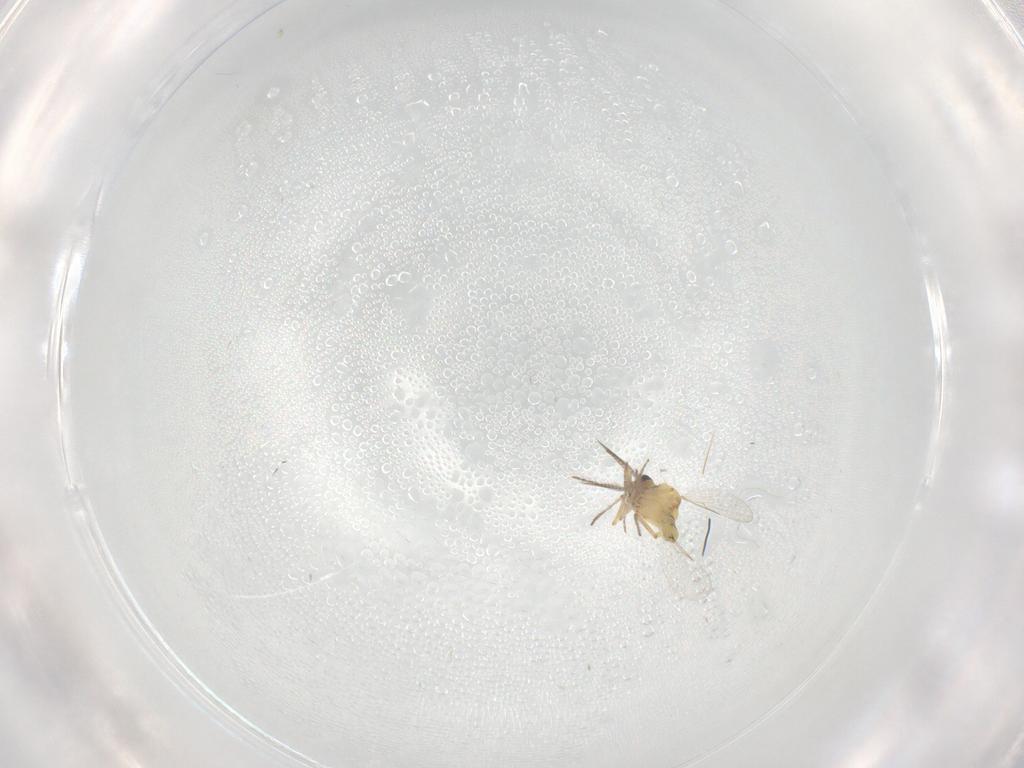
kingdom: Animalia
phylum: Arthropoda
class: Insecta
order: Diptera
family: Ceratopogonidae
